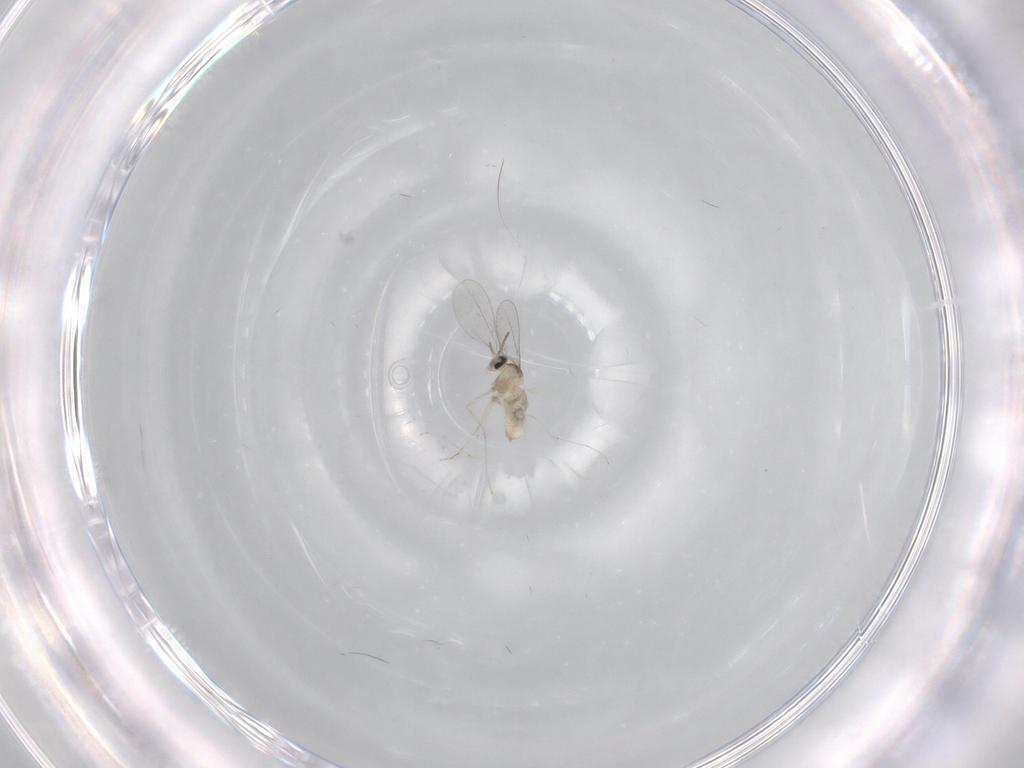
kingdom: Animalia
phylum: Arthropoda
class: Insecta
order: Diptera
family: Cecidomyiidae
